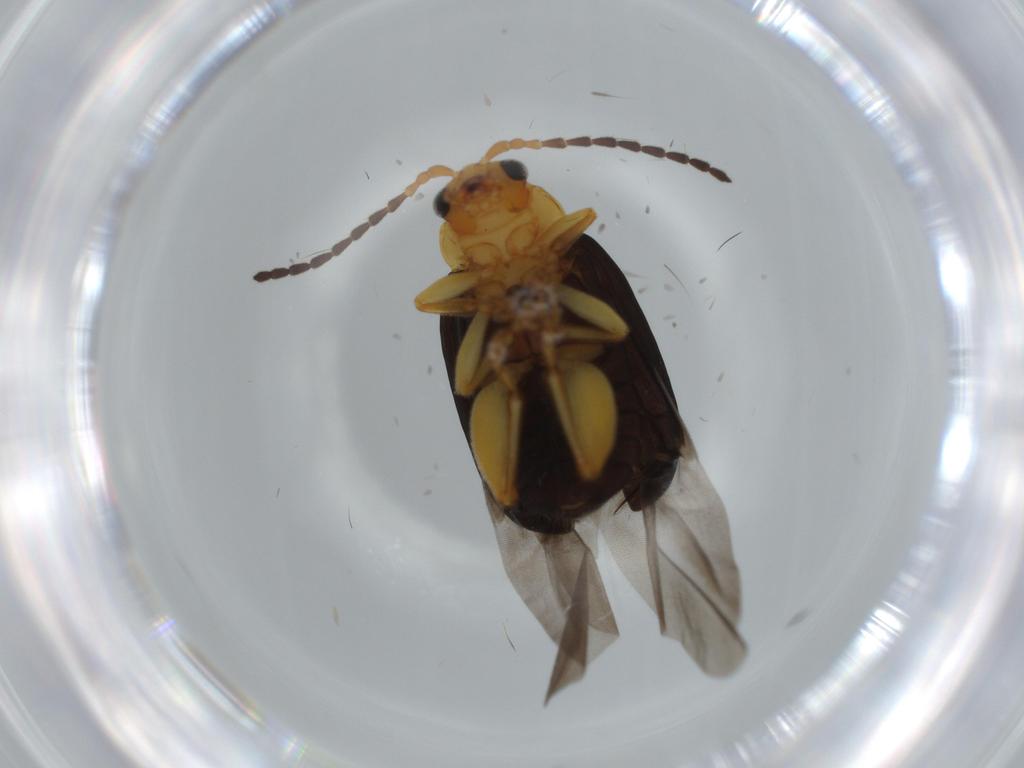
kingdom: Animalia
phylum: Arthropoda
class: Insecta
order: Coleoptera
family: Chrysomelidae
